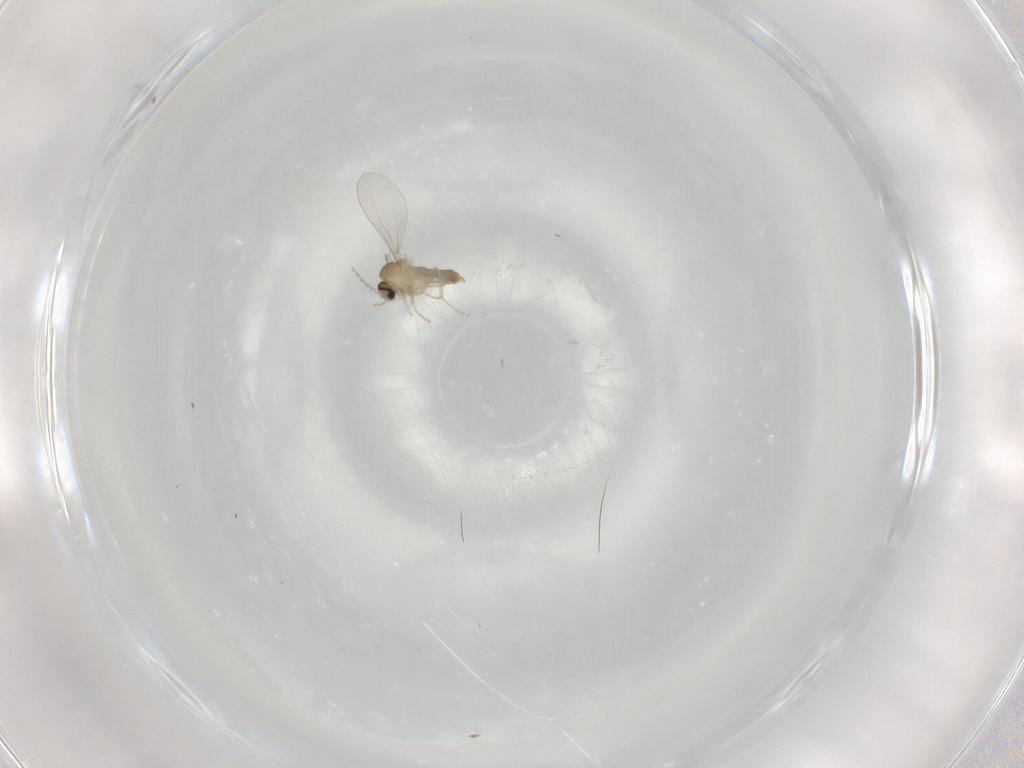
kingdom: Animalia
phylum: Arthropoda
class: Insecta
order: Diptera
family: Cecidomyiidae
